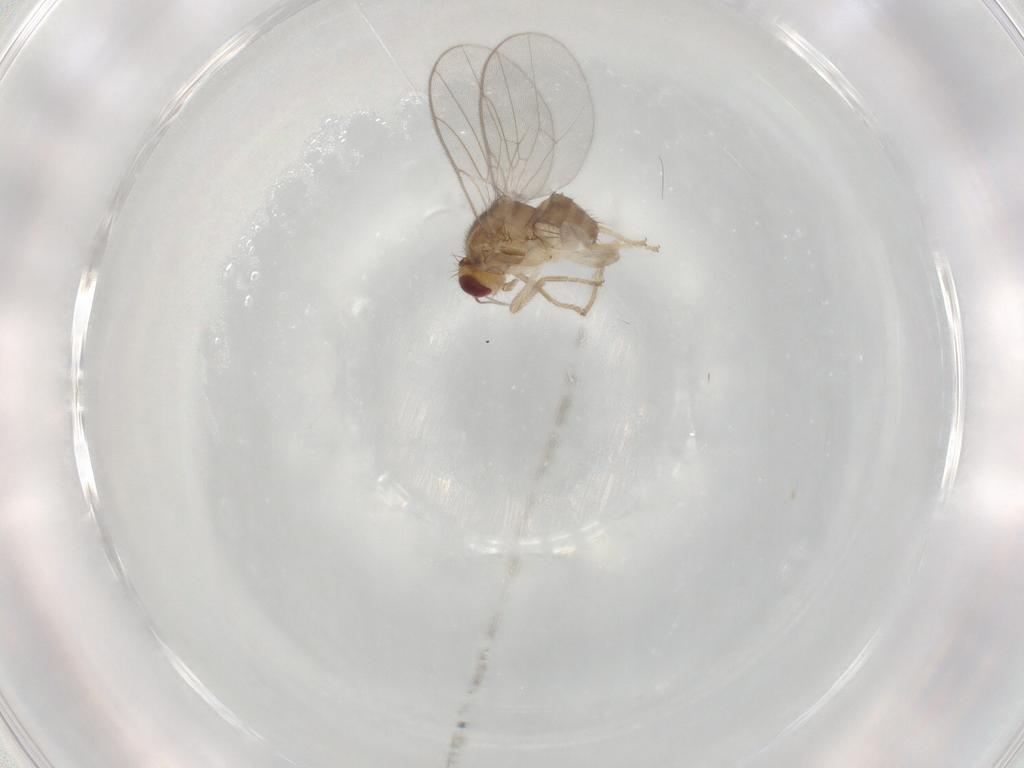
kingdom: Animalia
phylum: Arthropoda
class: Insecta
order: Diptera
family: Chloropidae
